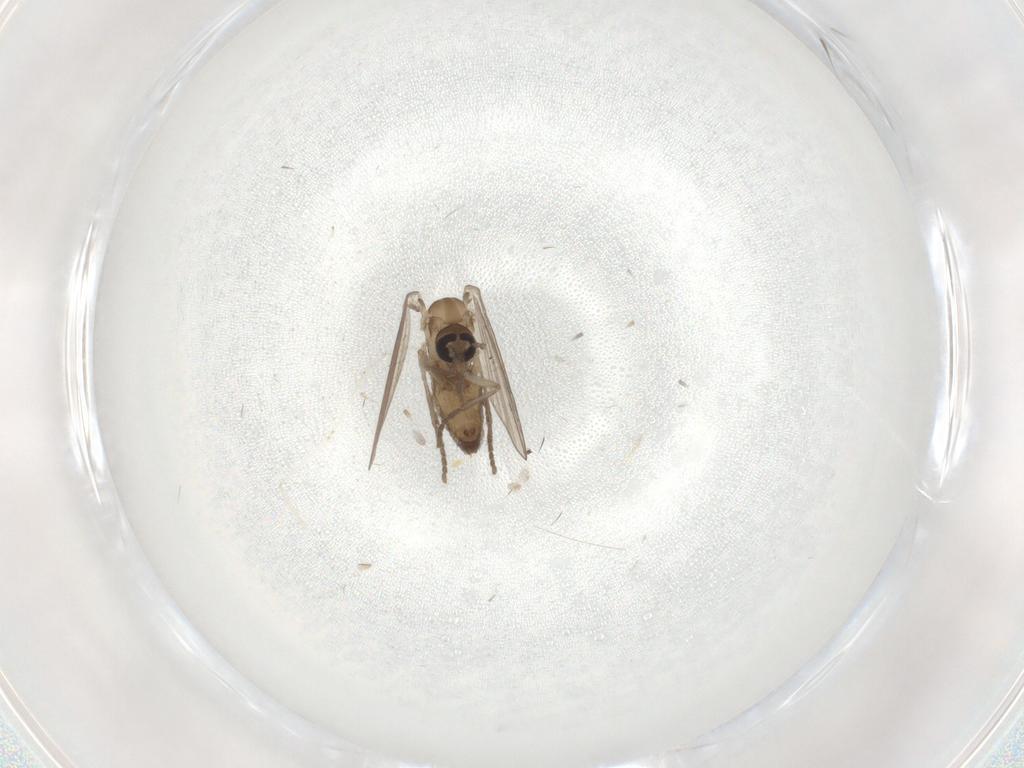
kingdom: Animalia
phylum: Arthropoda
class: Insecta
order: Diptera
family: Psychodidae
